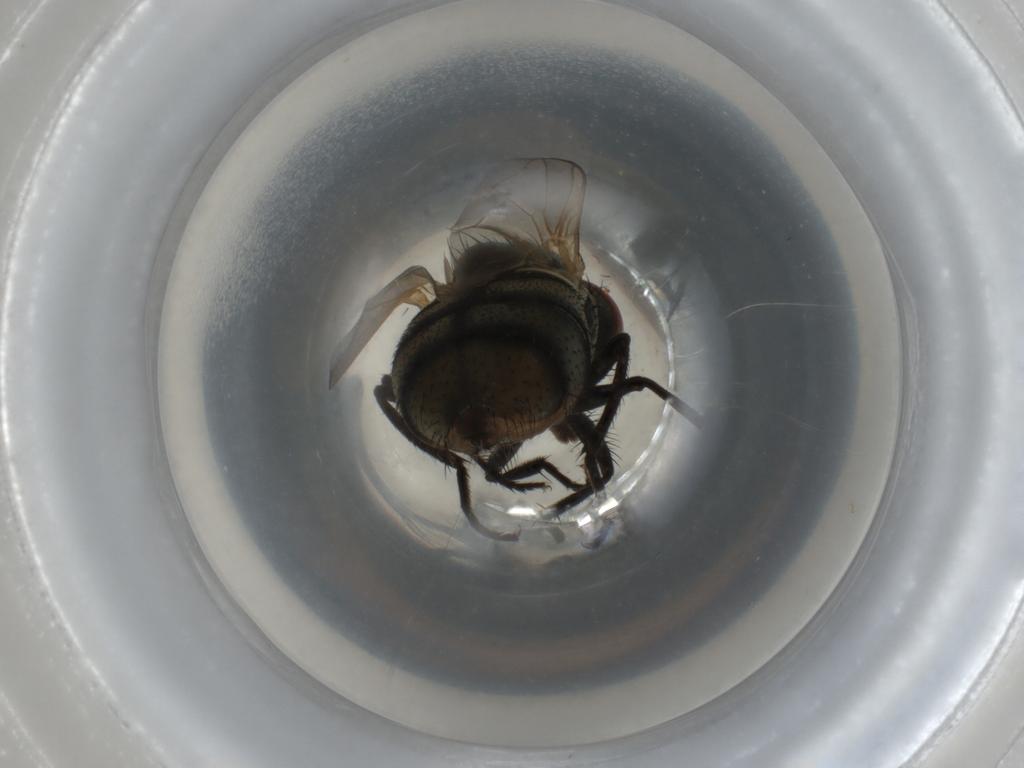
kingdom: Animalia
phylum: Arthropoda
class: Insecta
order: Diptera
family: Muscidae
